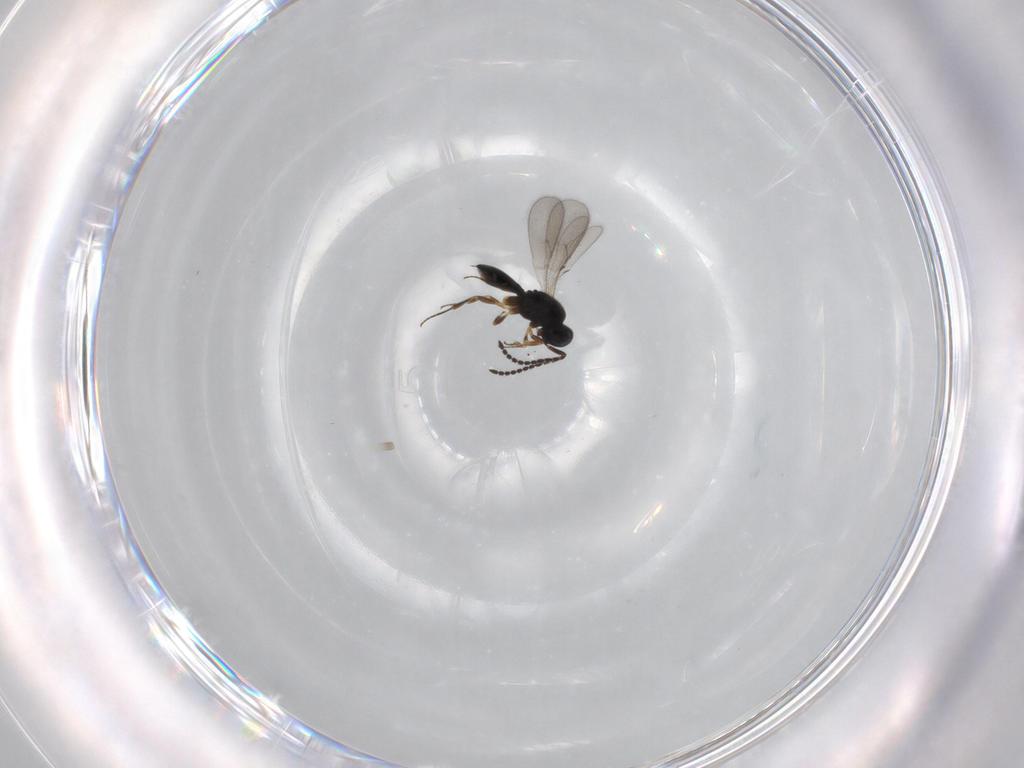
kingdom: Animalia
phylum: Arthropoda
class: Insecta
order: Hymenoptera
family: Scelionidae
